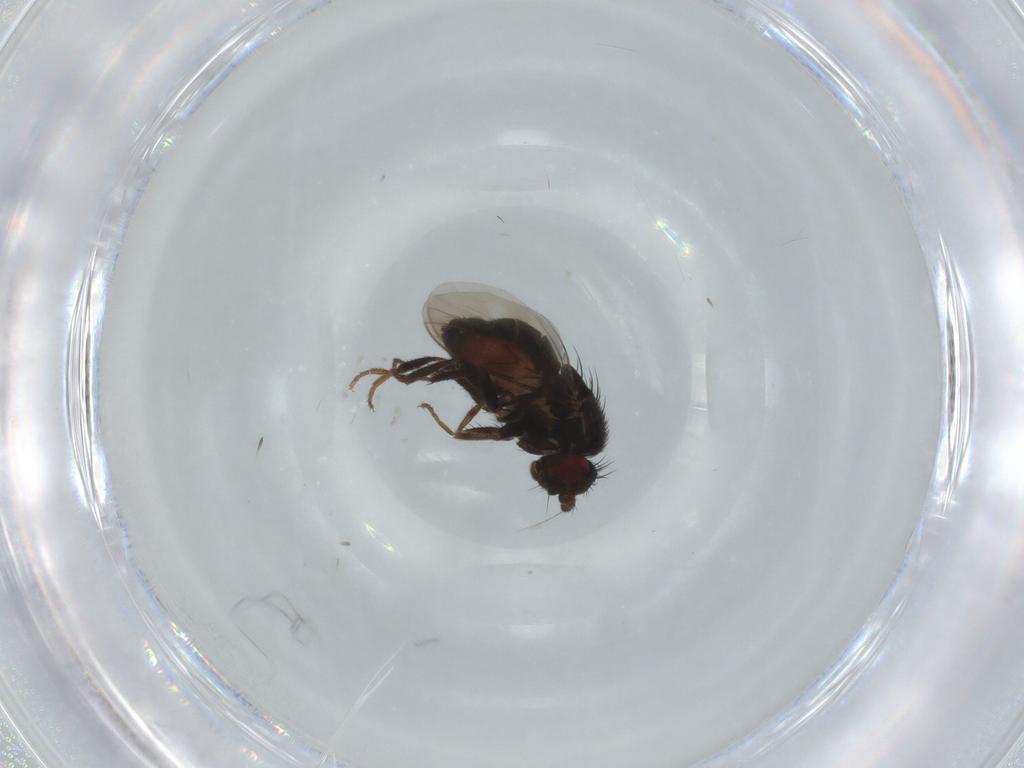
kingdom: Animalia
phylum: Arthropoda
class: Insecta
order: Diptera
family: Sphaeroceridae
